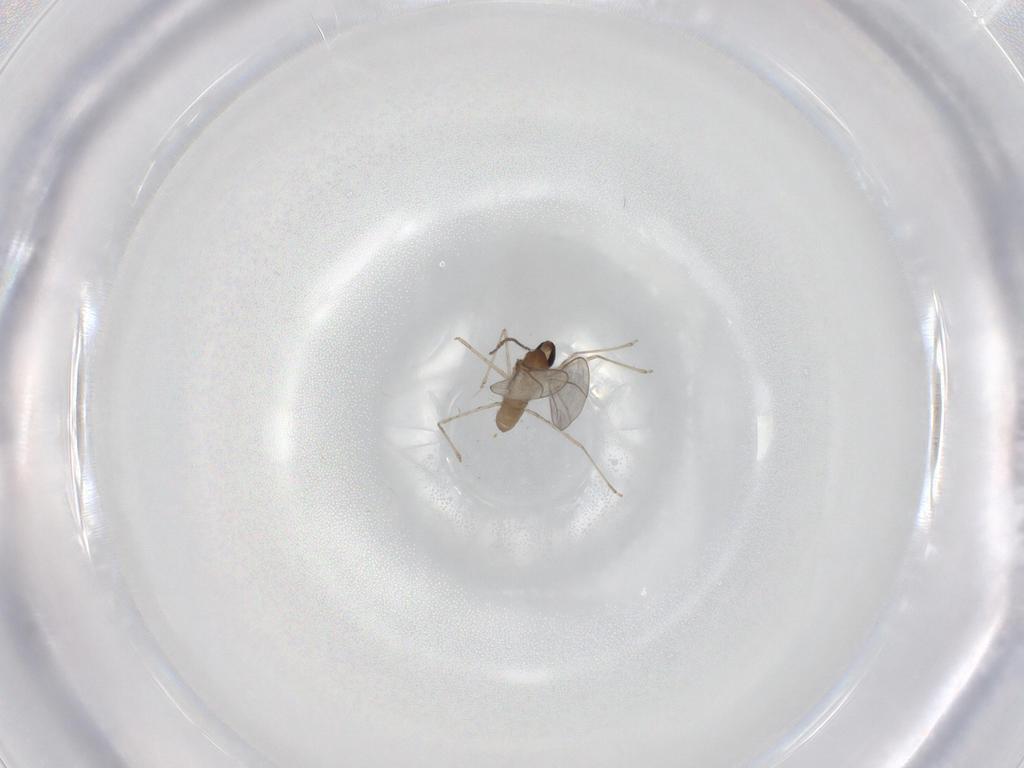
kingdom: Animalia
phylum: Arthropoda
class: Insecta
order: Diptera
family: Cecidomyiidae
